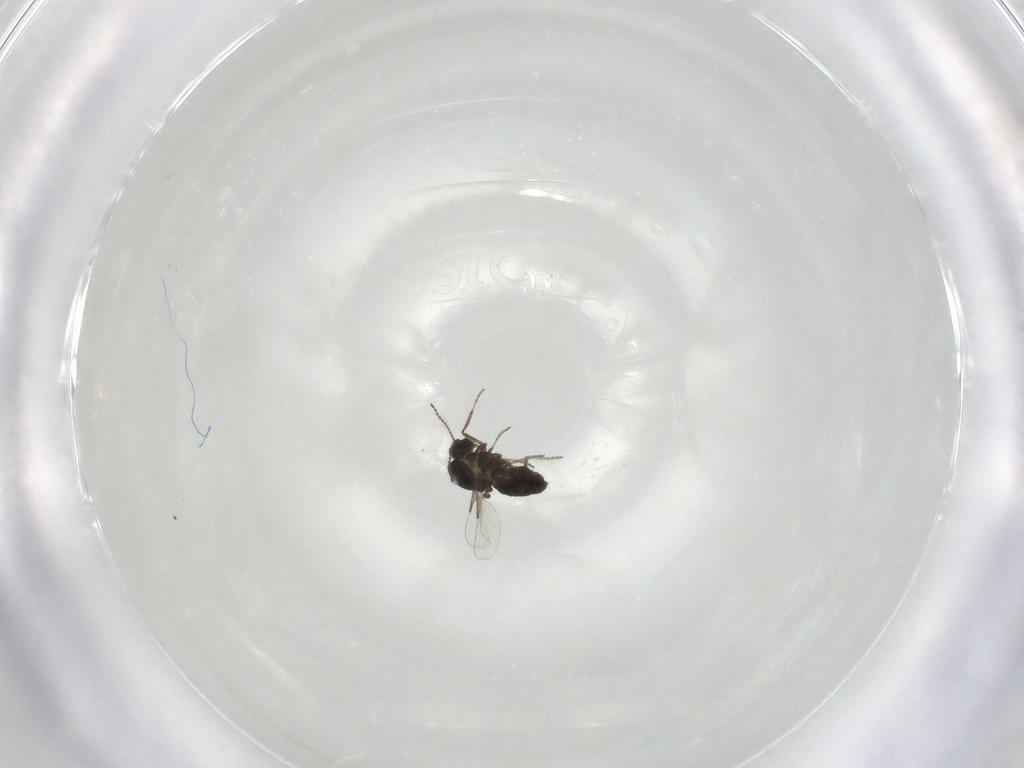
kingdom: Animalia
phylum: Arthropoda
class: Insecta
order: Diptera
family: Ceratopogonidae
